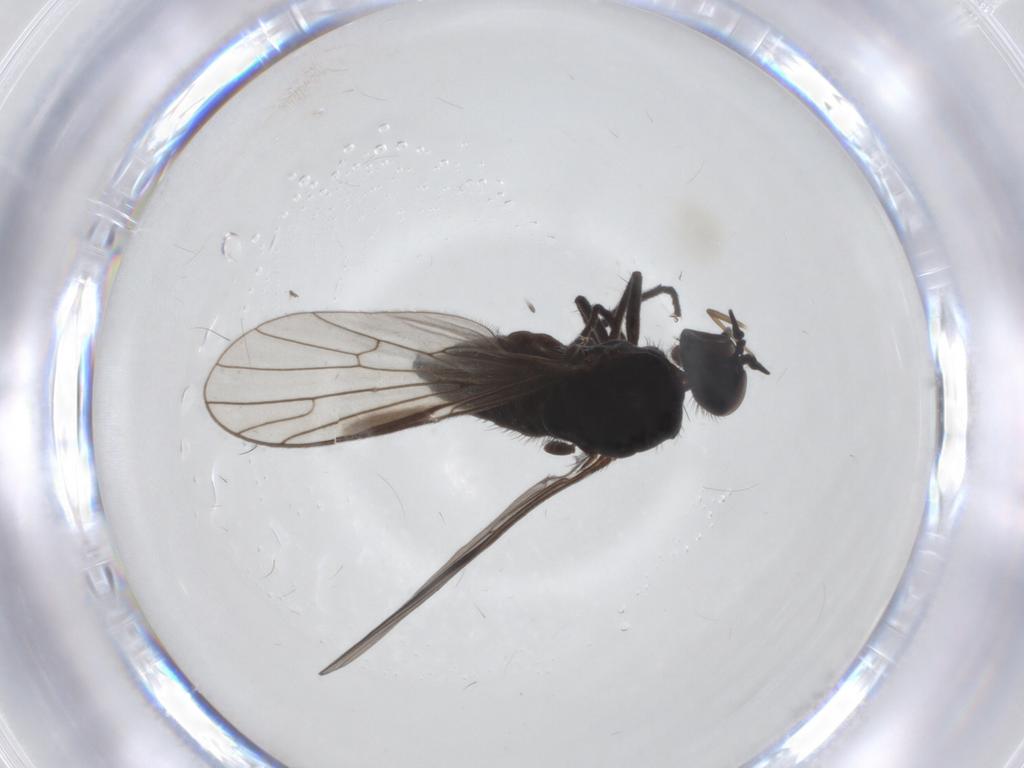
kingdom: Animalia
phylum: Arthropoda
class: Insecta
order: Diptera
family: Empididae
